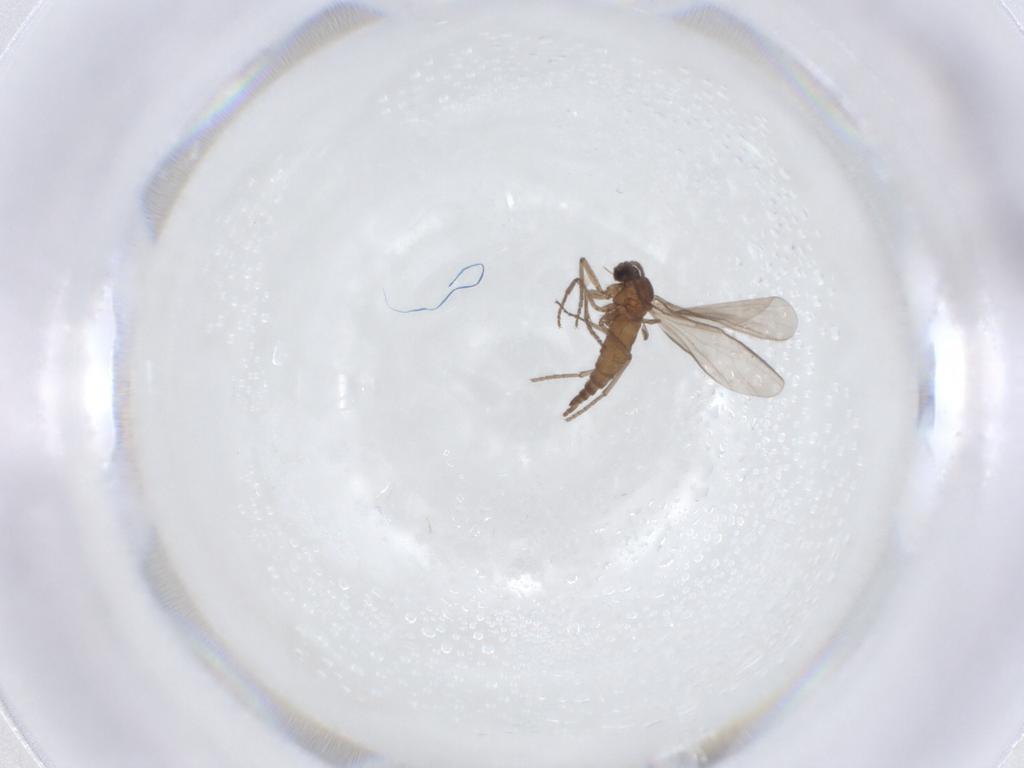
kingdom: Animalia
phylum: Arthropoda
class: Insecta
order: Diptera
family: Sciaridae
